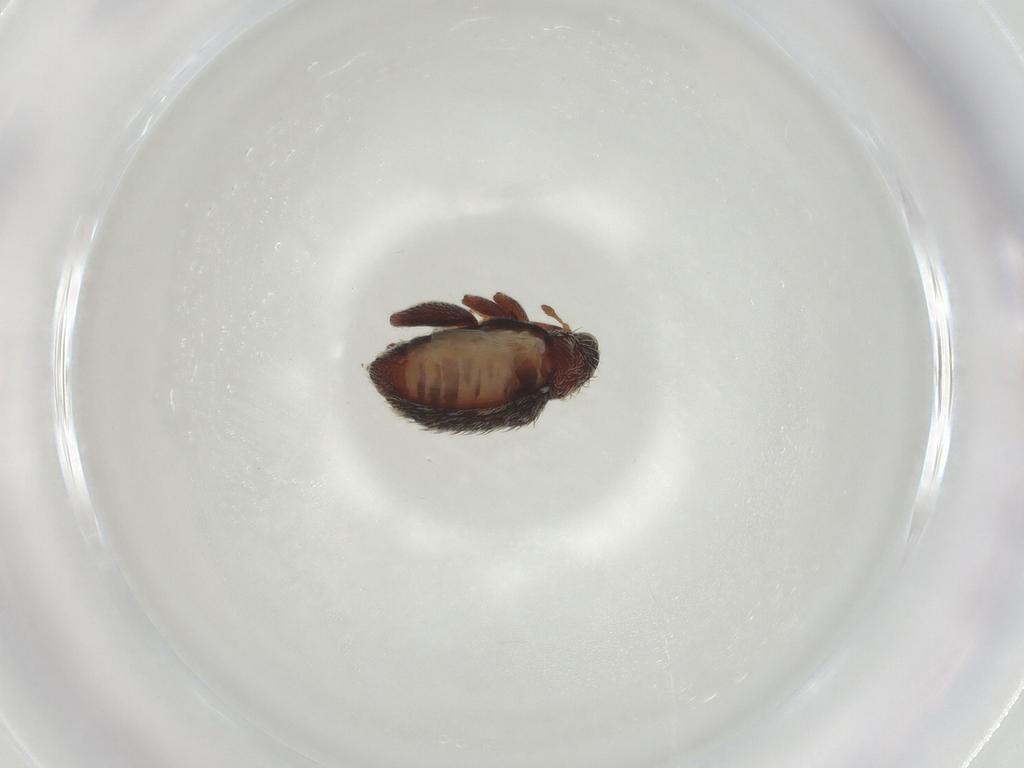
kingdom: Animalia
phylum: Arthropoda
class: Insecta
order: Coleoptera
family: Curculionidae
